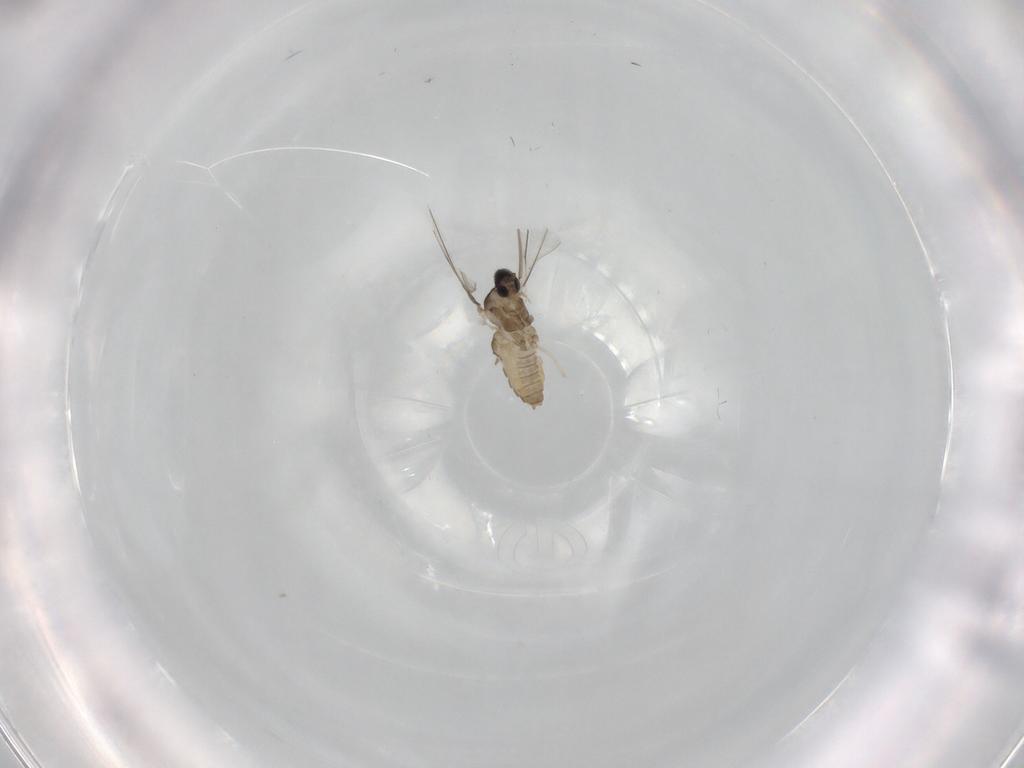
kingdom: Animalia
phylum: Arthropoda
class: Insecta
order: Diptera
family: Cecidomyiidae
